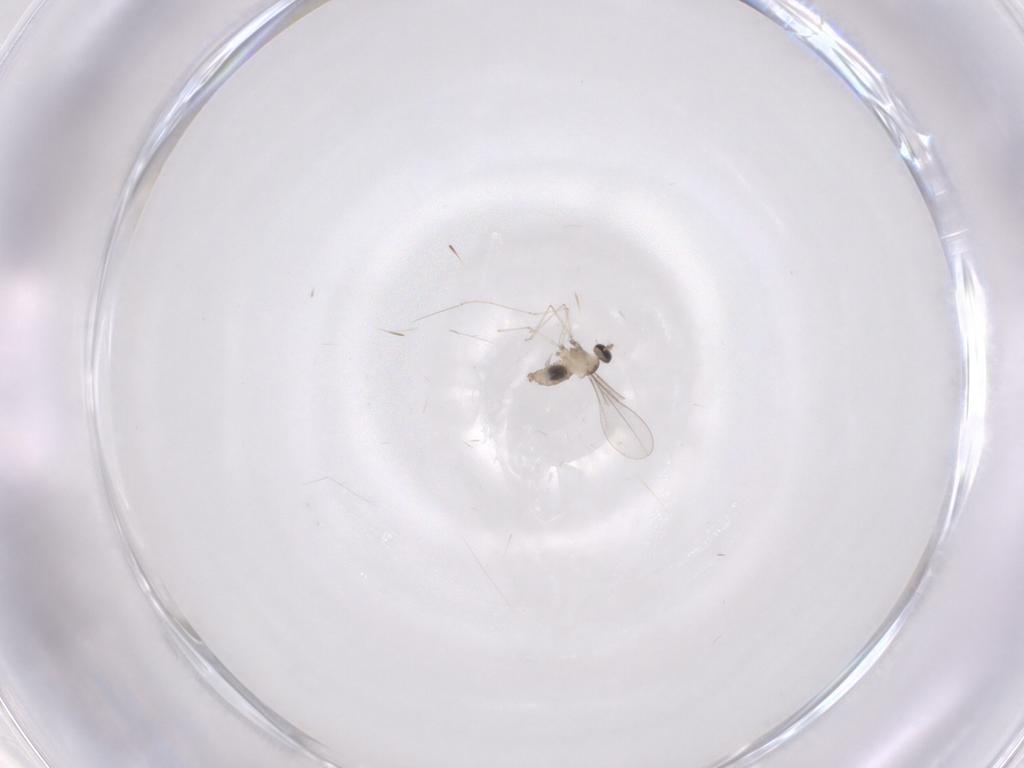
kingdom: Animalia
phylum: Arthropoda
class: Insecta
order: Diptera
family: Cecidomyiidae
